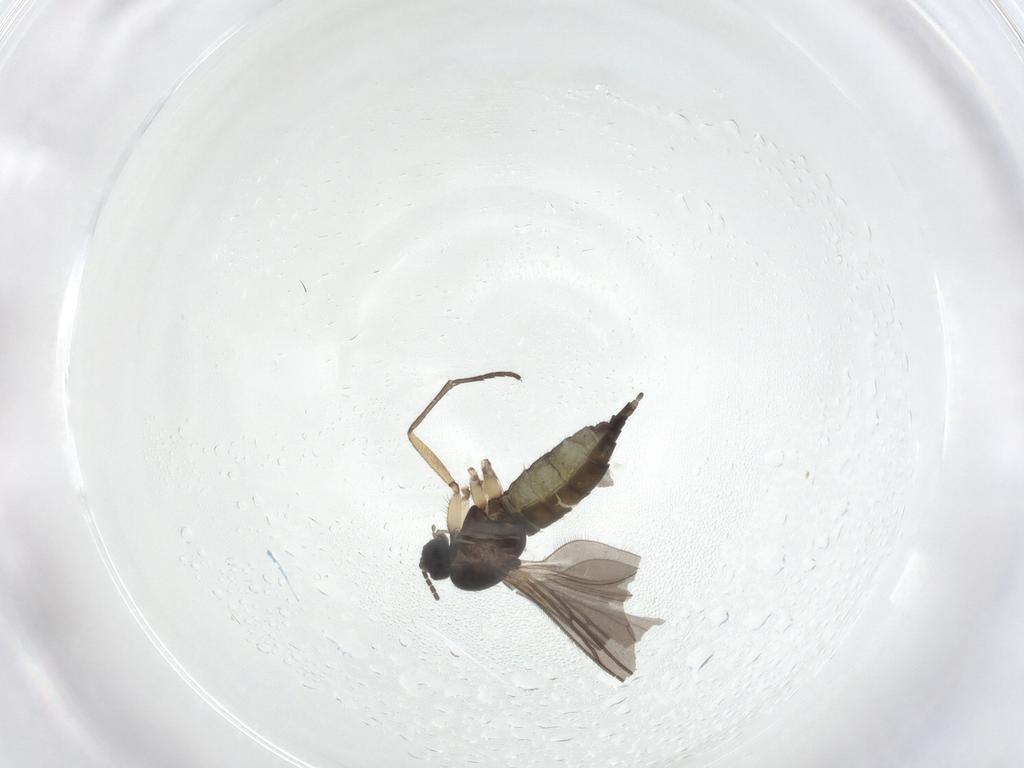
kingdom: Animalia
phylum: Arthropoda
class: Insecta
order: Diptera
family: Sciaridae
